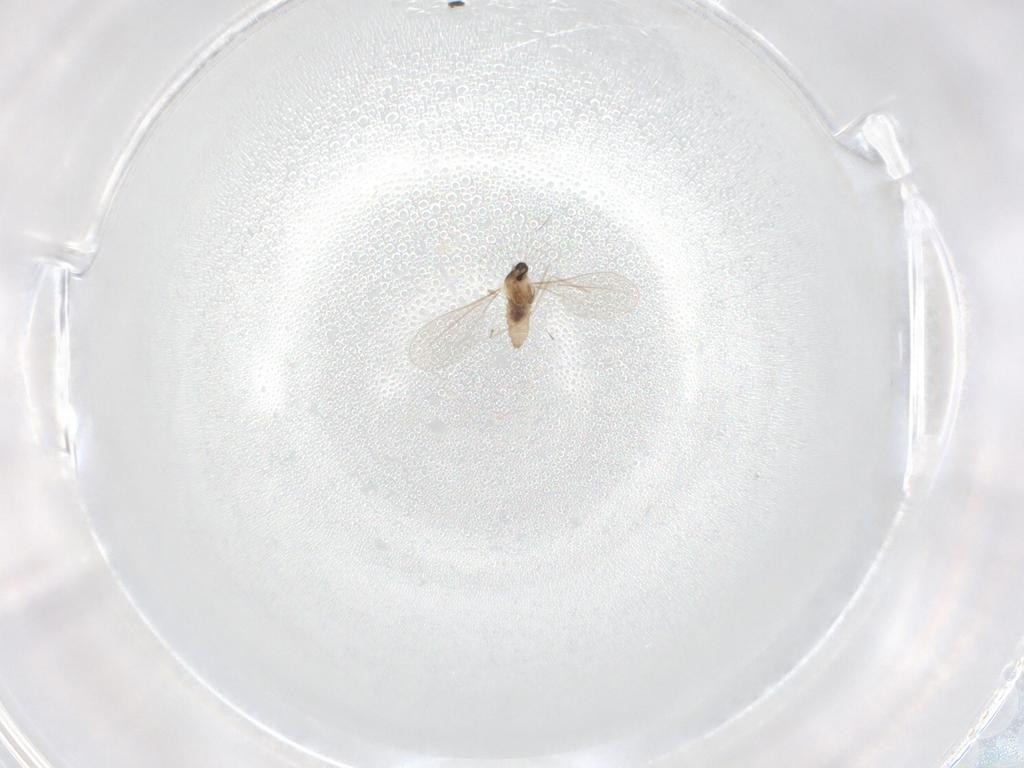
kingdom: Animalia
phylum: Arthropoda
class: Insecta
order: Diptera
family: Cecidomyiidae
